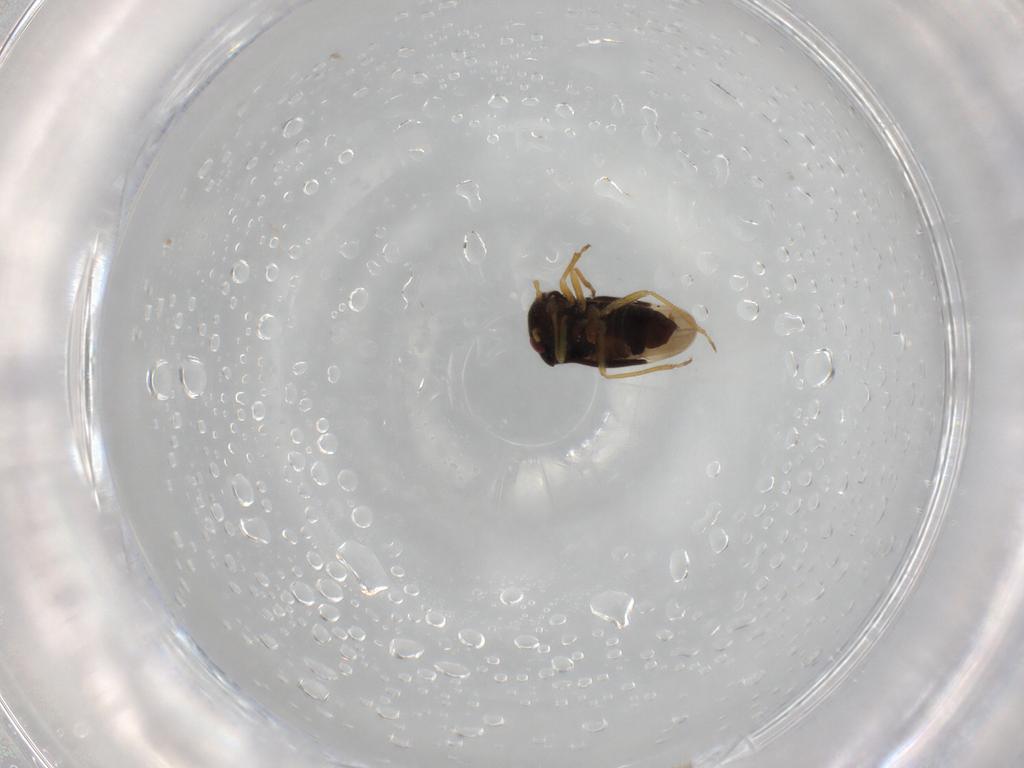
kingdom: Animalia
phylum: Arthropoda
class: Insecta
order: Hemiptera
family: Schizopteridae
